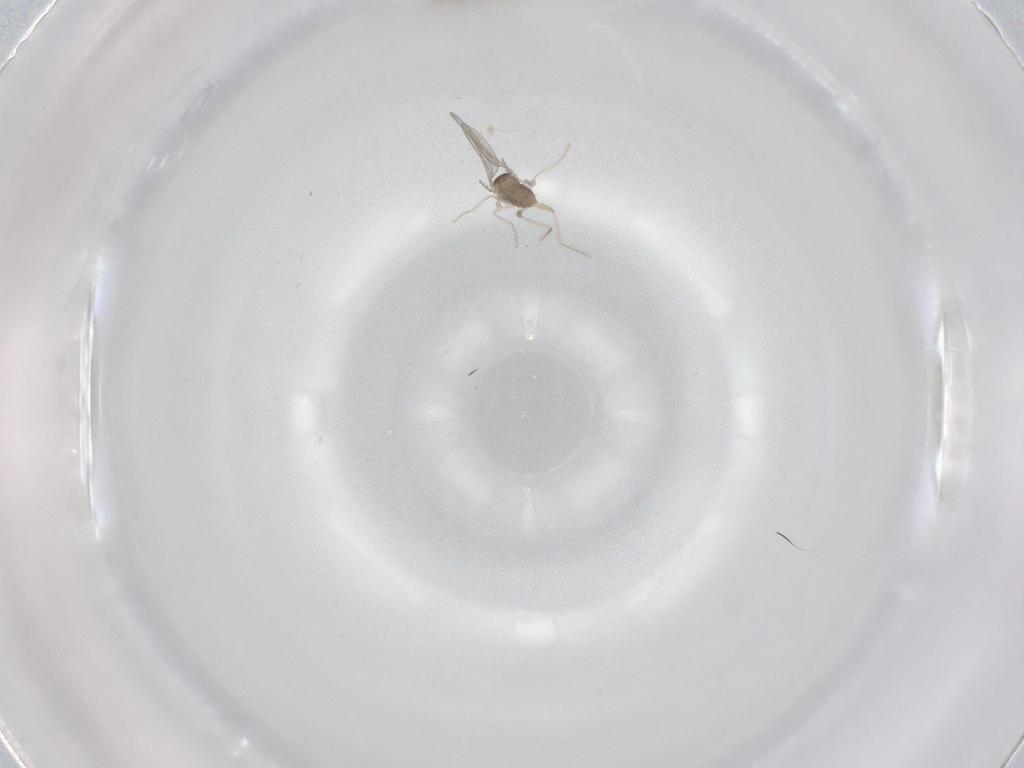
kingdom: Animalia
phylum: Arthropoda
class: Insecta
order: Diptera
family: Cecidomyiidae
